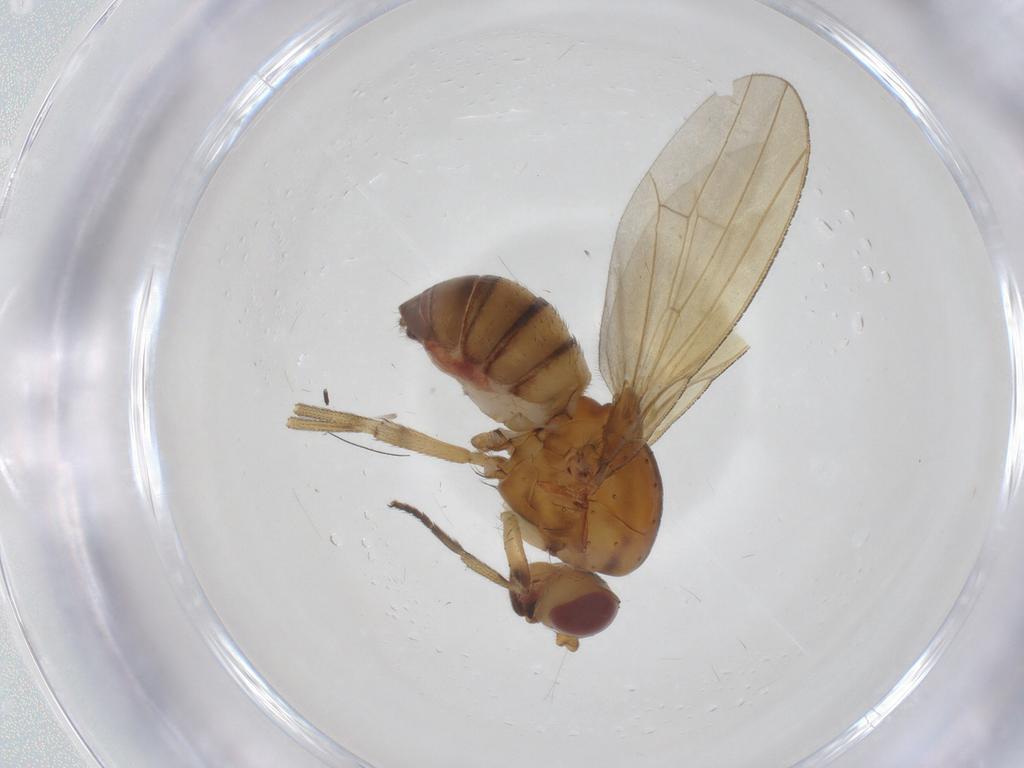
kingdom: Animalia
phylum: Arthropoda
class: Insecta
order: Diptera
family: Lauxaniidae
